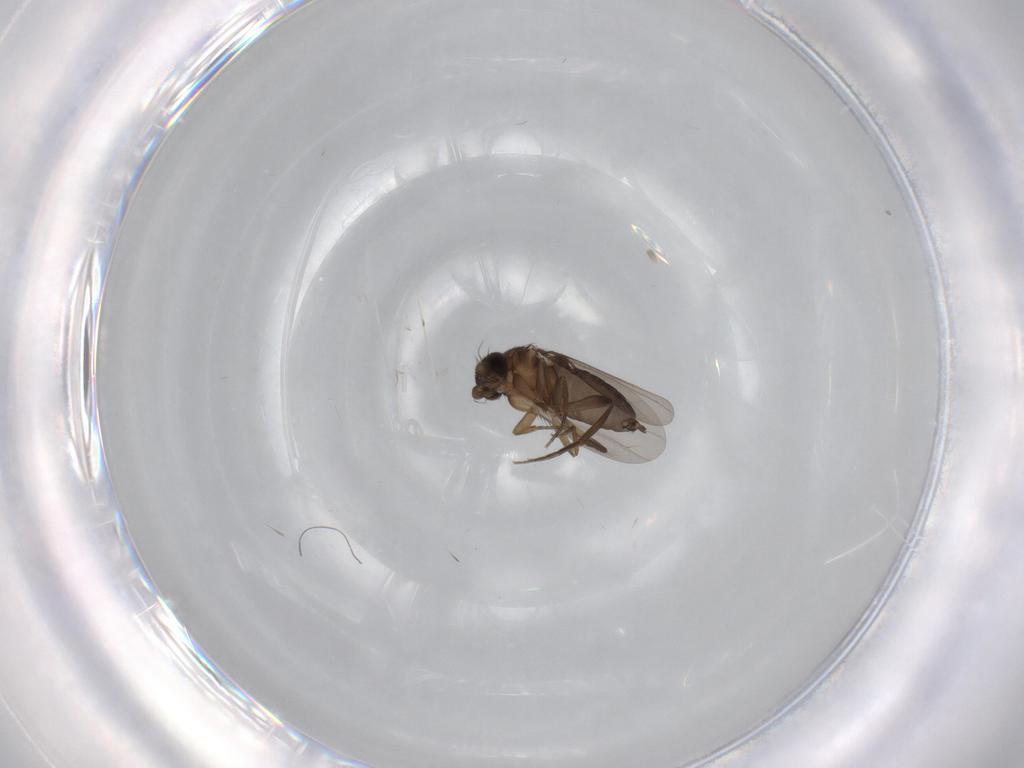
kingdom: Animalia
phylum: Arthropoda
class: Insecta
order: Diptera
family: Phoridae
